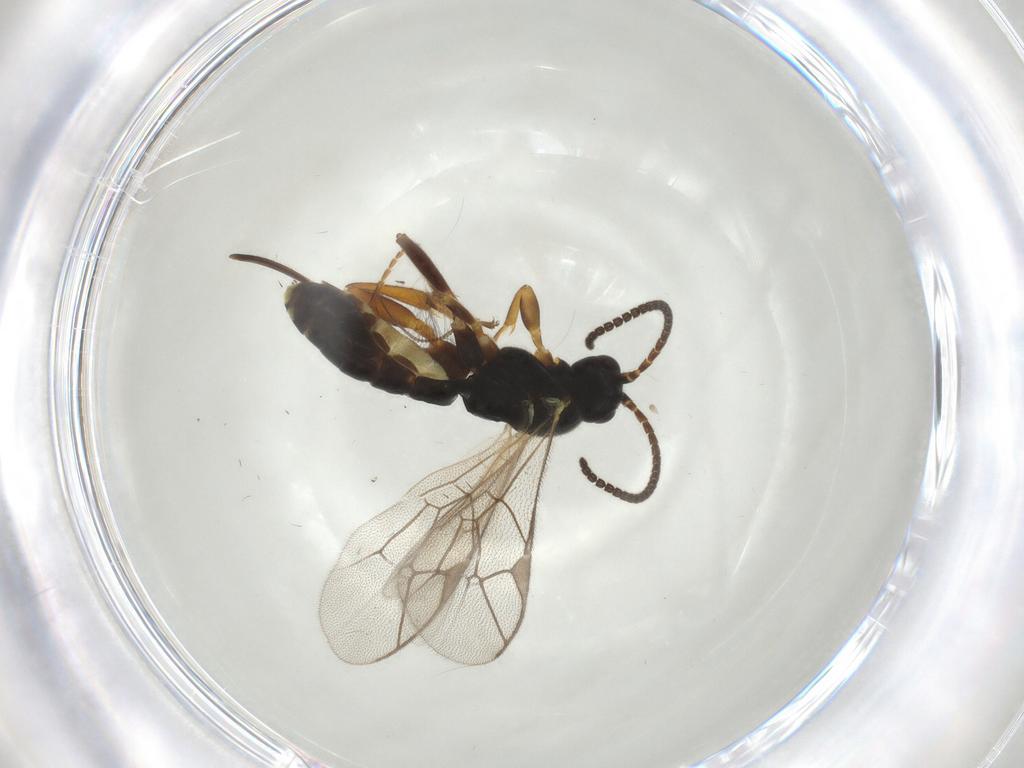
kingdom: Animalia
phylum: Arthropoda
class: Insecta
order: Hymenoptera
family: Ichneumonidae
